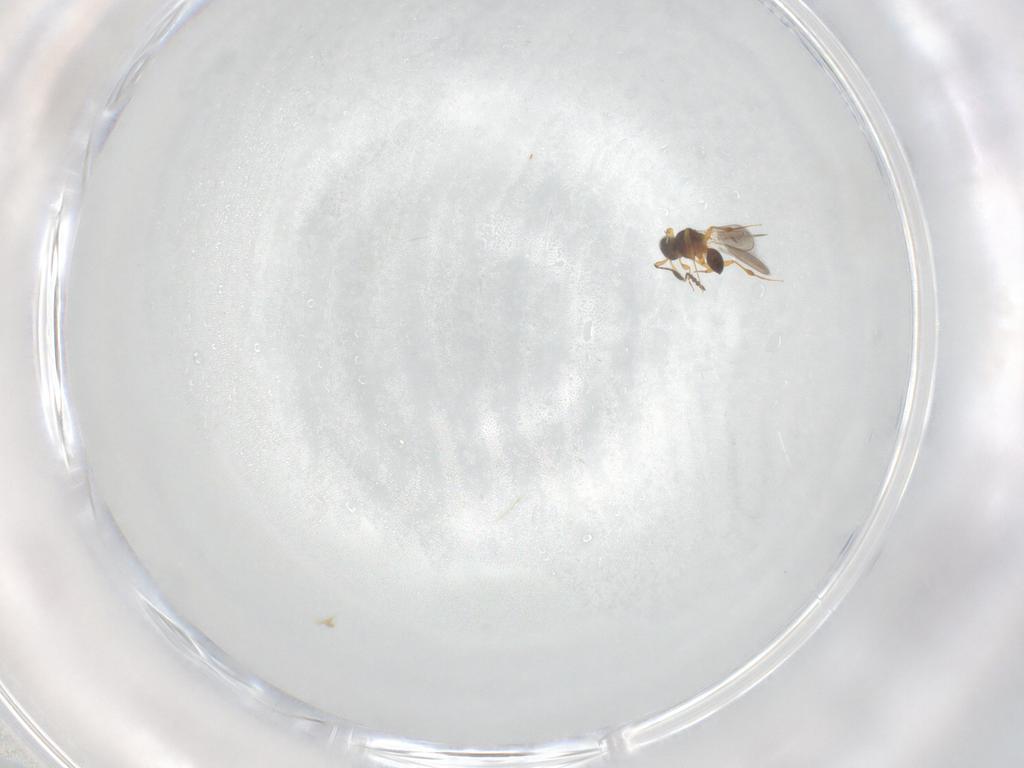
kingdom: Animalia
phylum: Arthropoda
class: Insecta
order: Hymenoptera
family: Platygastridae
